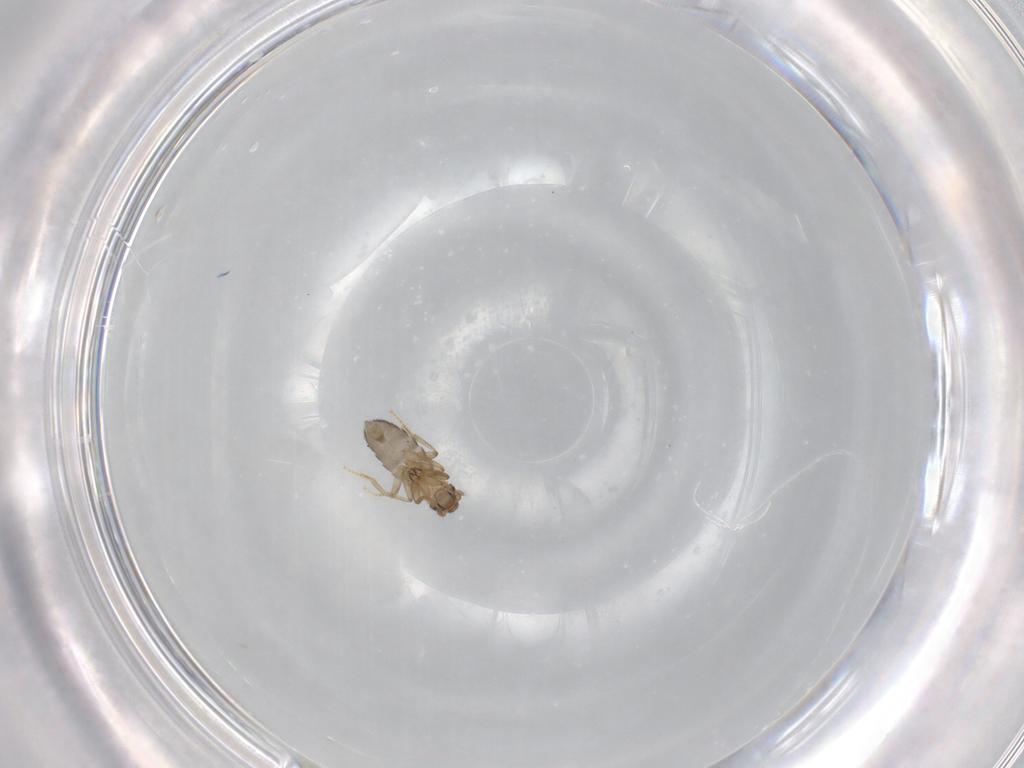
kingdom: Animalia
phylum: Arthropoda
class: Insecta
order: Diptera
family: Phoridae
